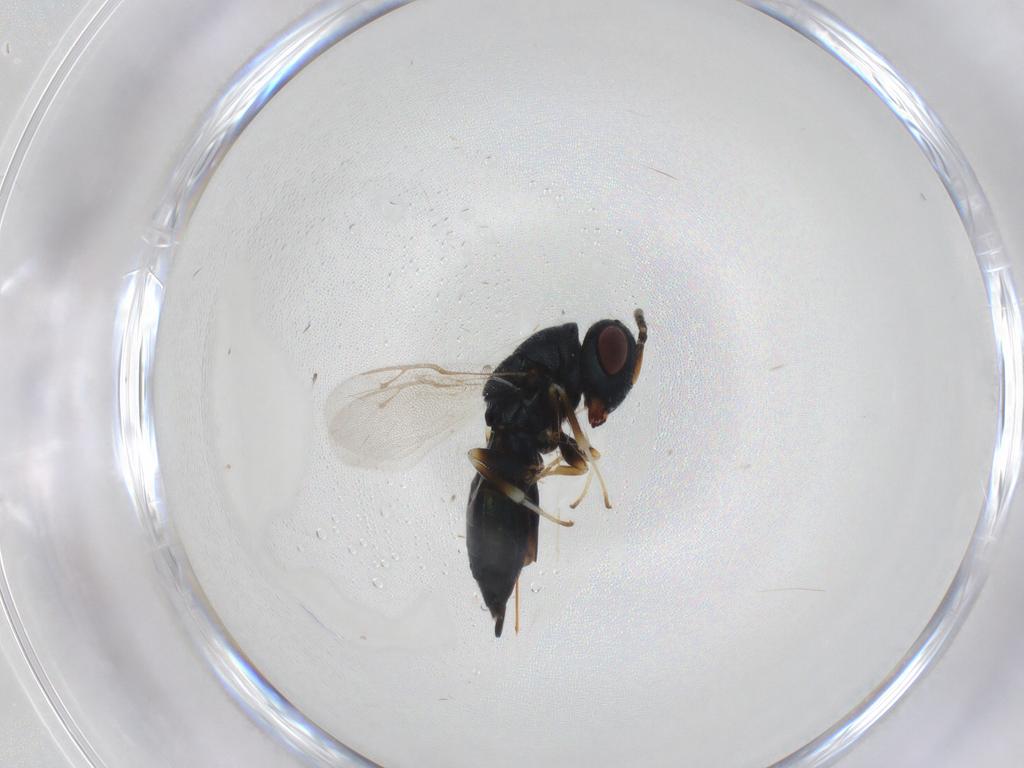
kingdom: Animalia
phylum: Arthropoda
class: Insecta
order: Hymenoptera
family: Pteromalidae
